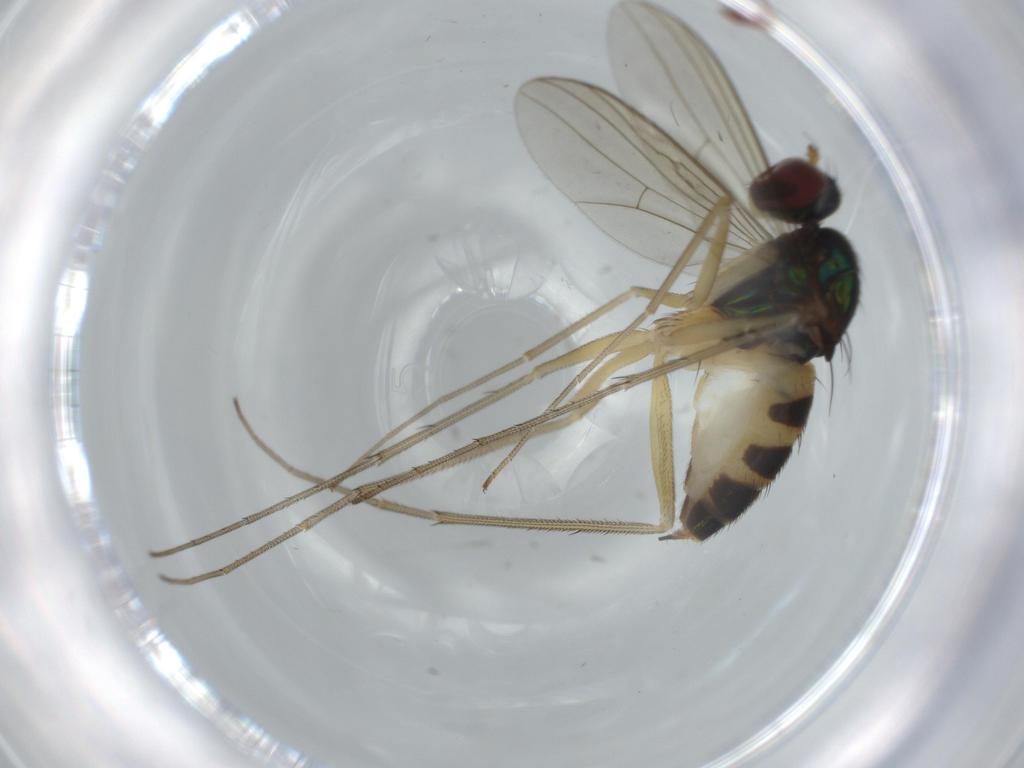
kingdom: Animalia
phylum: Arthropoda
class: Insecta
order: Diptera
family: Dolichopodidae
